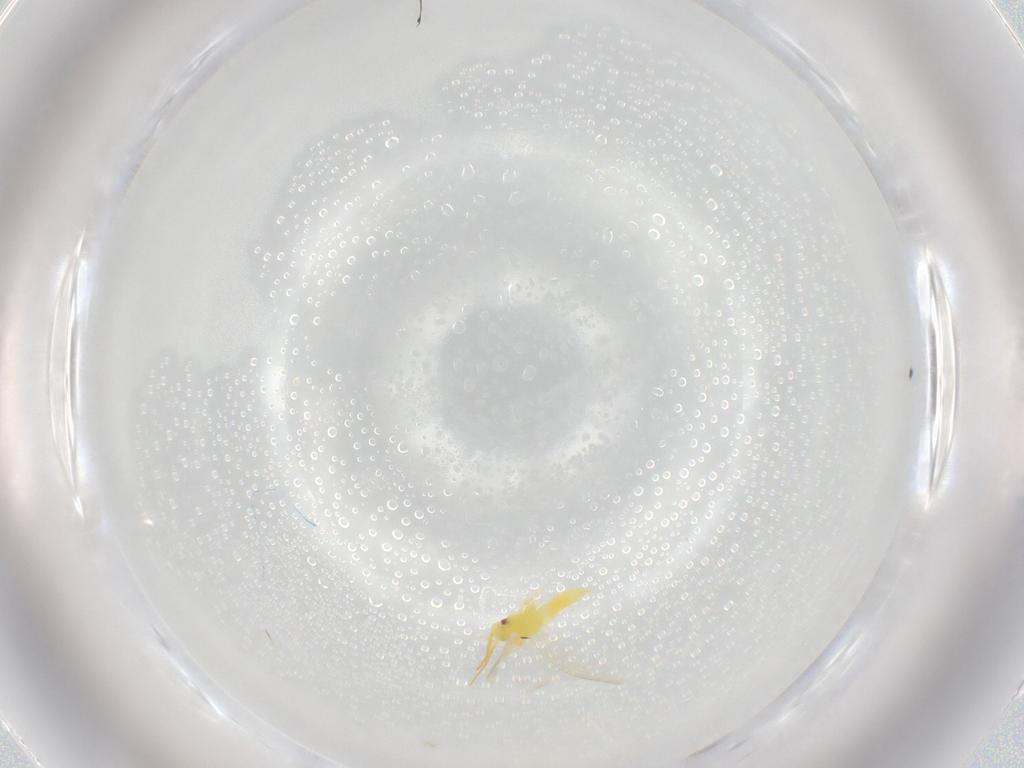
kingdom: Animalia
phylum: Arthropoda
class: Insecta
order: Hemiptera
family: Aleyrodidae
